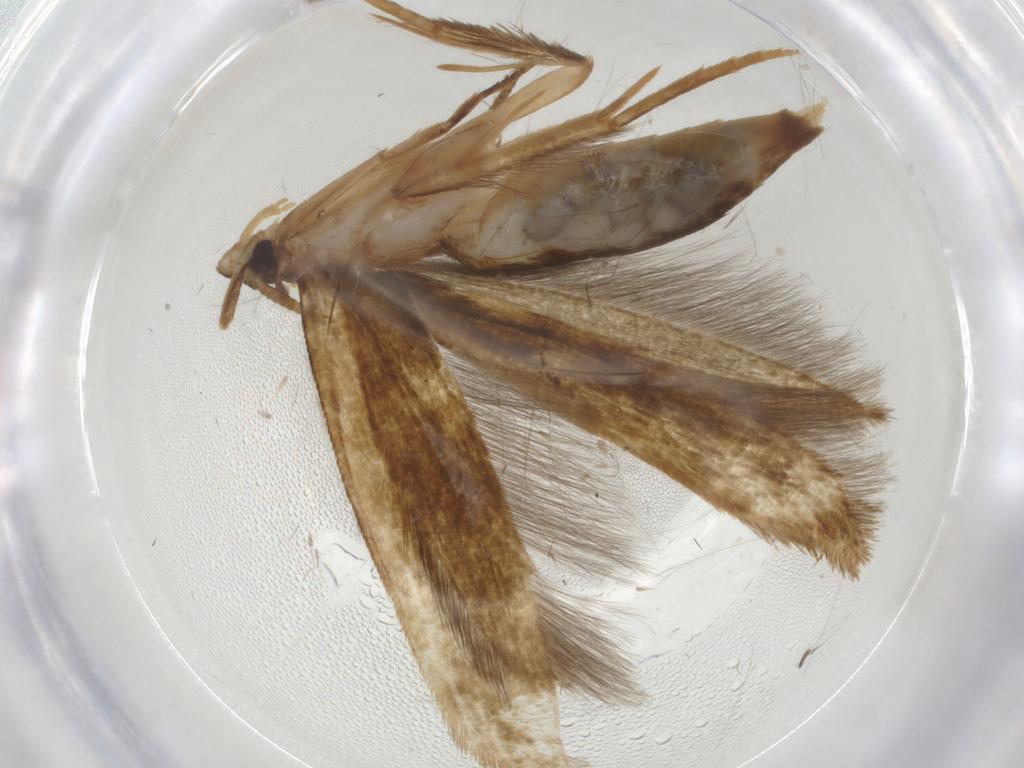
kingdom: Animalia
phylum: Arthropoda
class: Insecta
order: Lepidoptera
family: Tineidae
